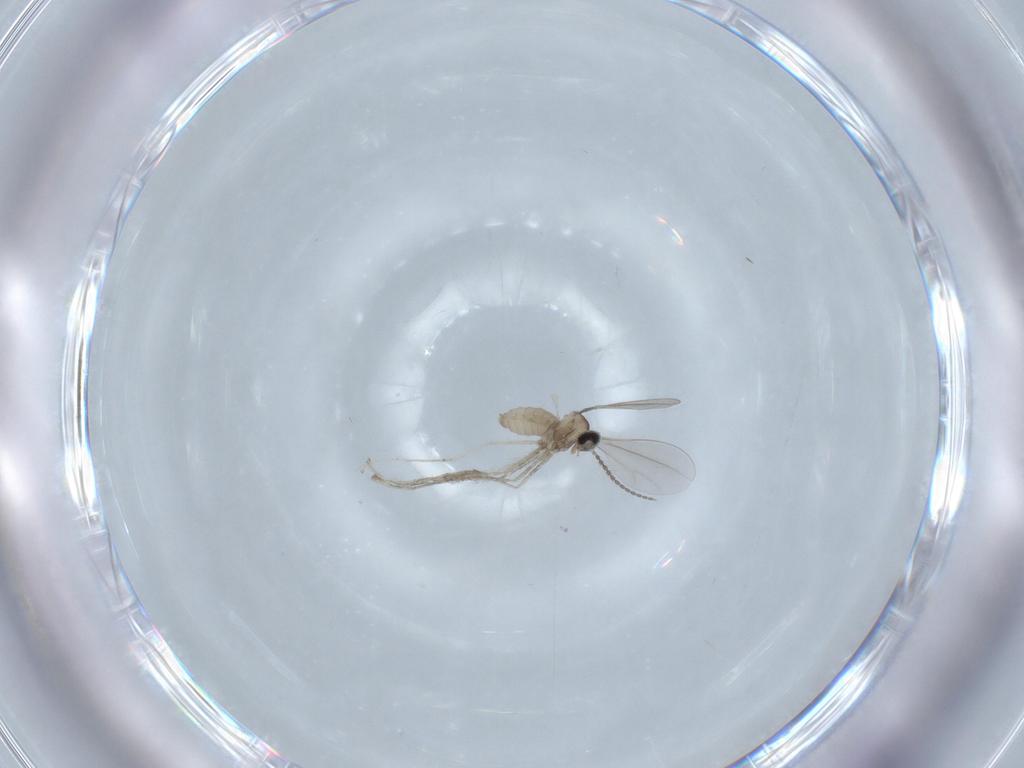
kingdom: Animalia
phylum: Arthropoda
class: Insecta
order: Diptera
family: Cecidomyiidae
